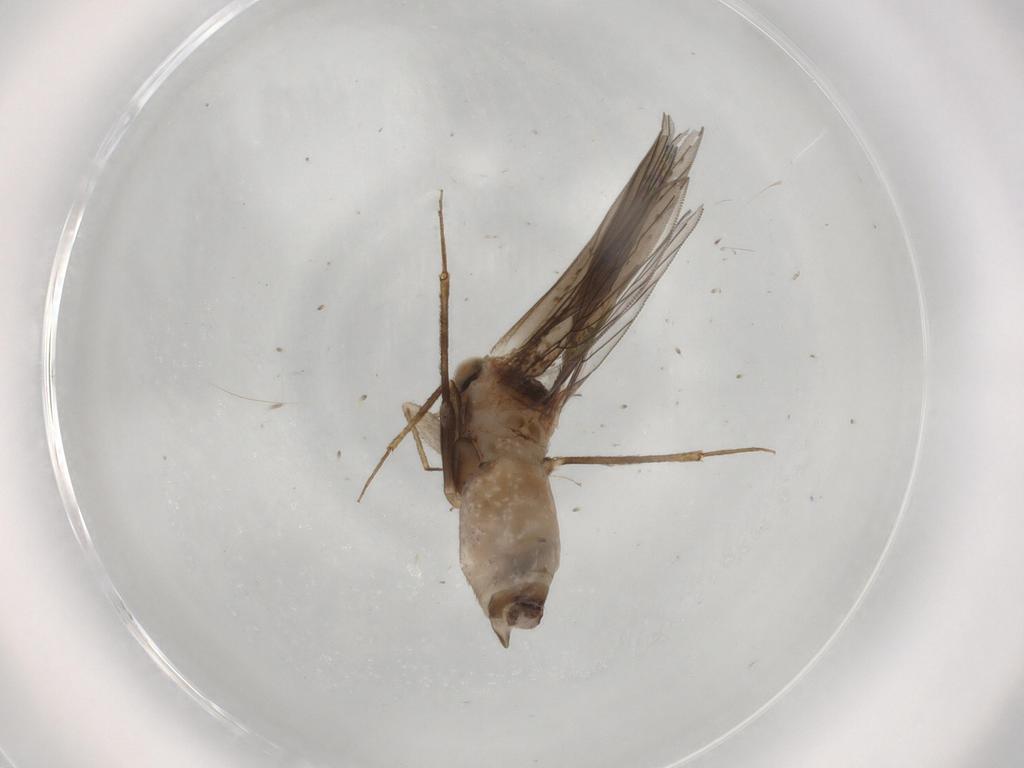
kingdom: Animalia
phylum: Arthropoda
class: Insecta
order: Psocodea
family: Lepidopsocidae
